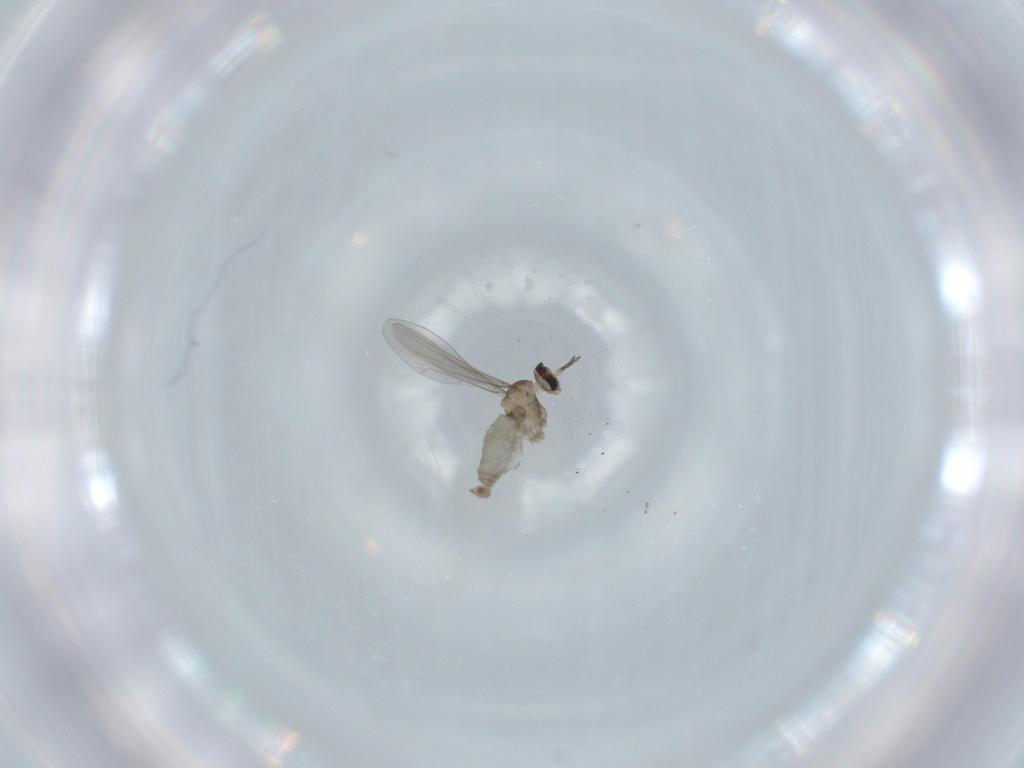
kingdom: Animalia
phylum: Arthropoda
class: Insecta
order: Diptera
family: Cecidomyiidae
